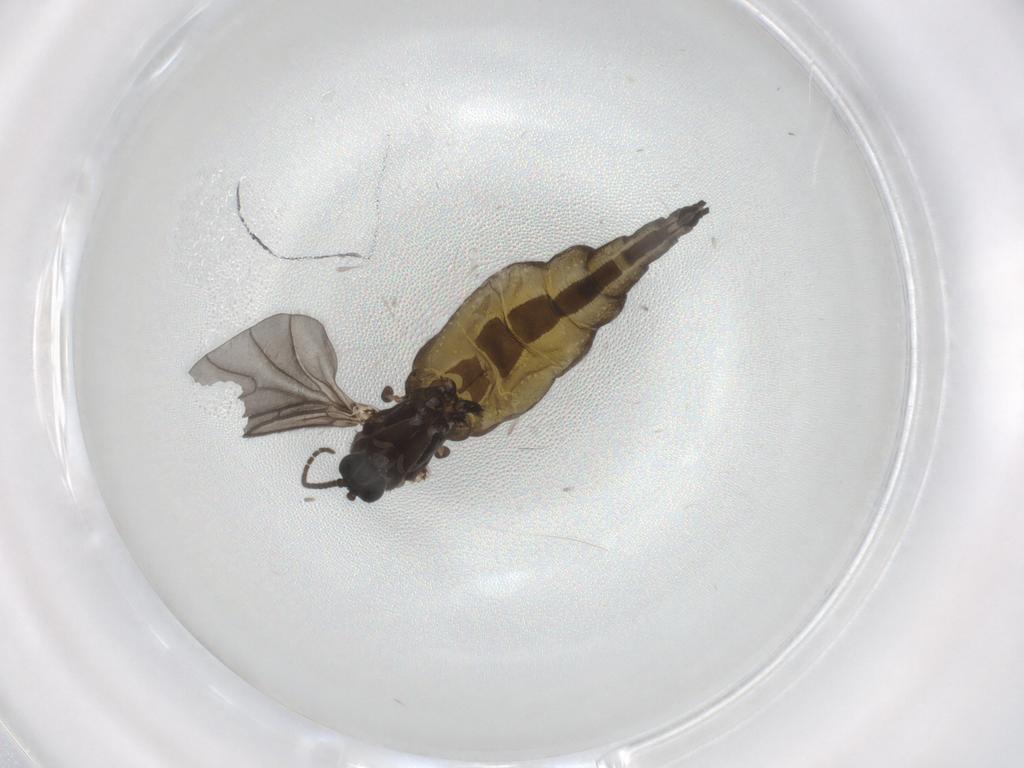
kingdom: Animalia
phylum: Arthropoda
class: Insecta
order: Diptera
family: Sciaridae
